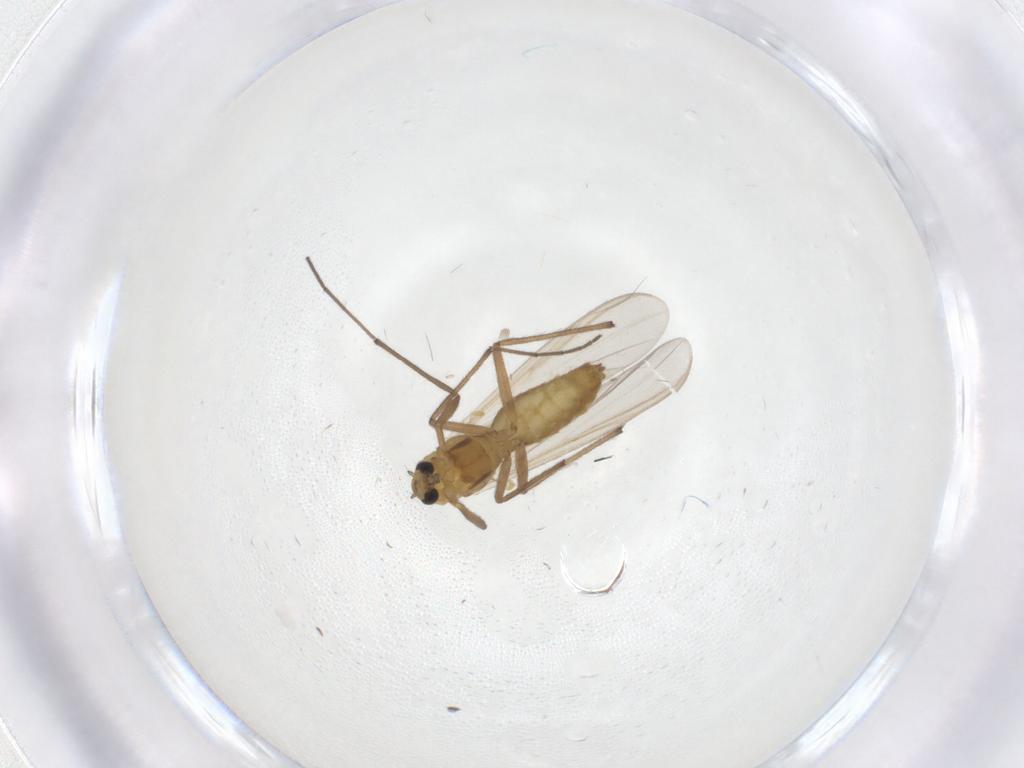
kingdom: Animalia
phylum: Arthropoda
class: Insecta
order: Diptera
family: Chironomidae
